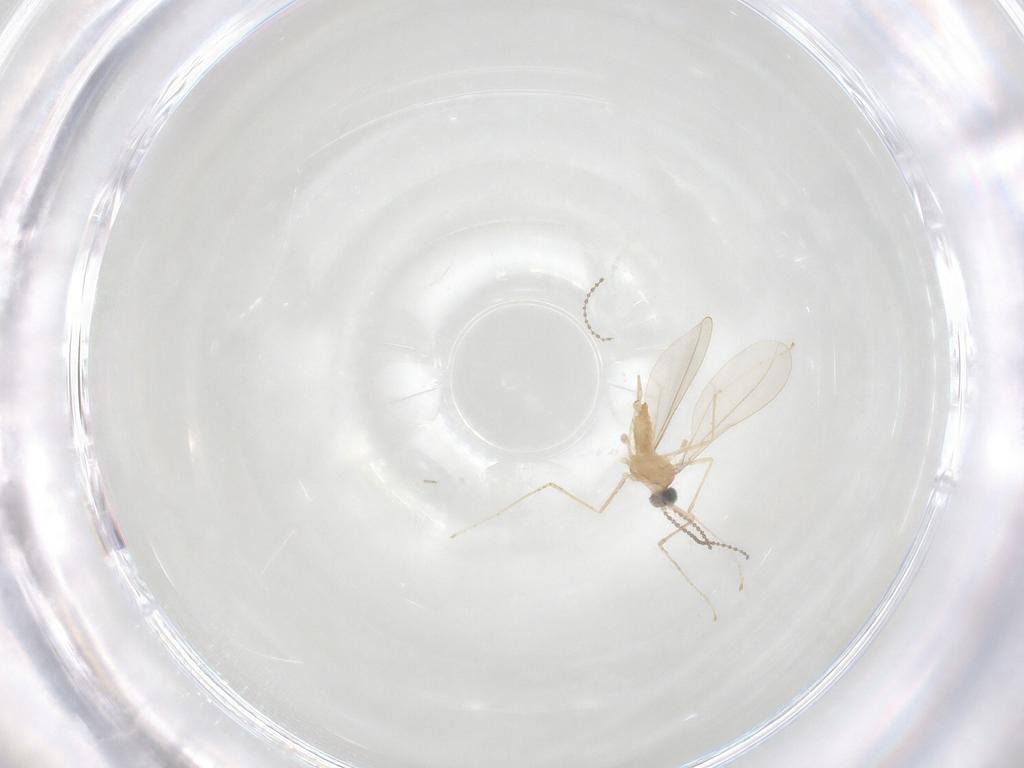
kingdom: Animalia
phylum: Arthropoda
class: Insecta
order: Diptera
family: Cecidomyiidae
